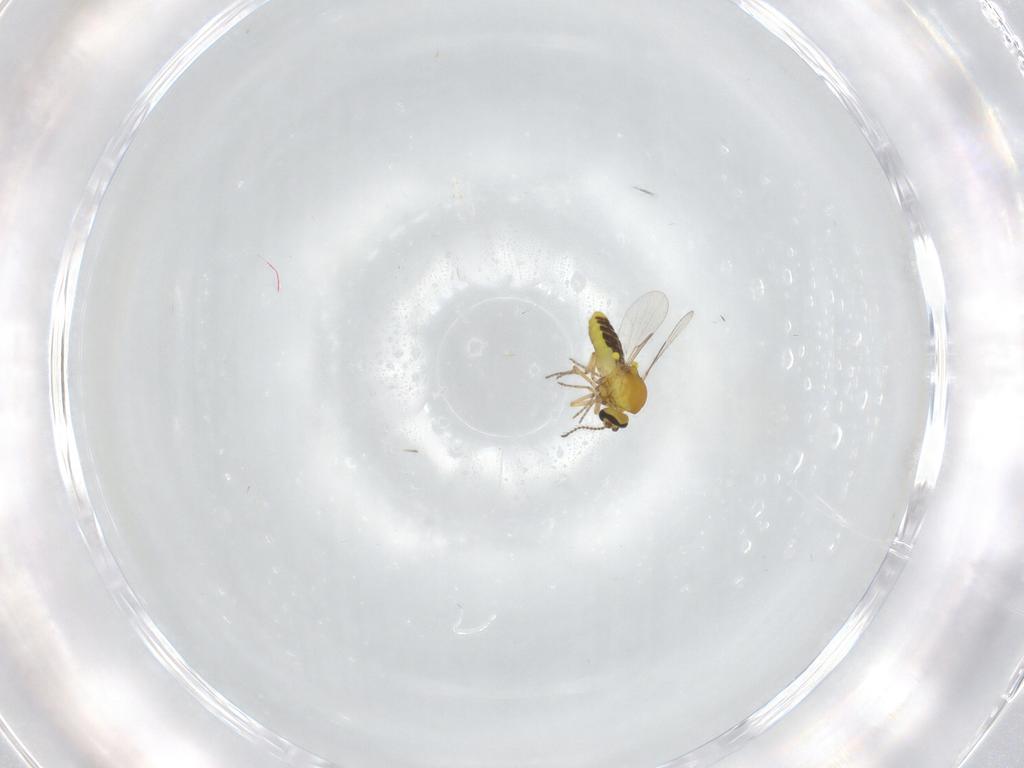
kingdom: Animalia
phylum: Arthropoda
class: Insecta
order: Diptera
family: Ceratopogonidae
